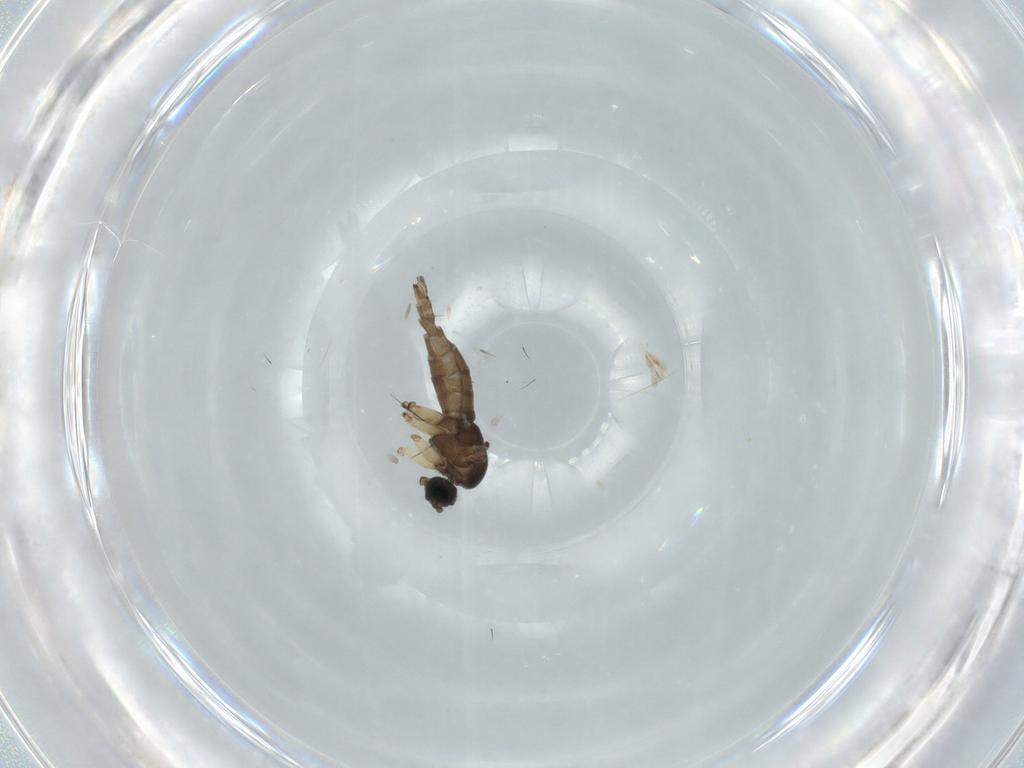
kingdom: Animalia
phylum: Arthropoda
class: Insecta
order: Diptera
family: Sciaridae
